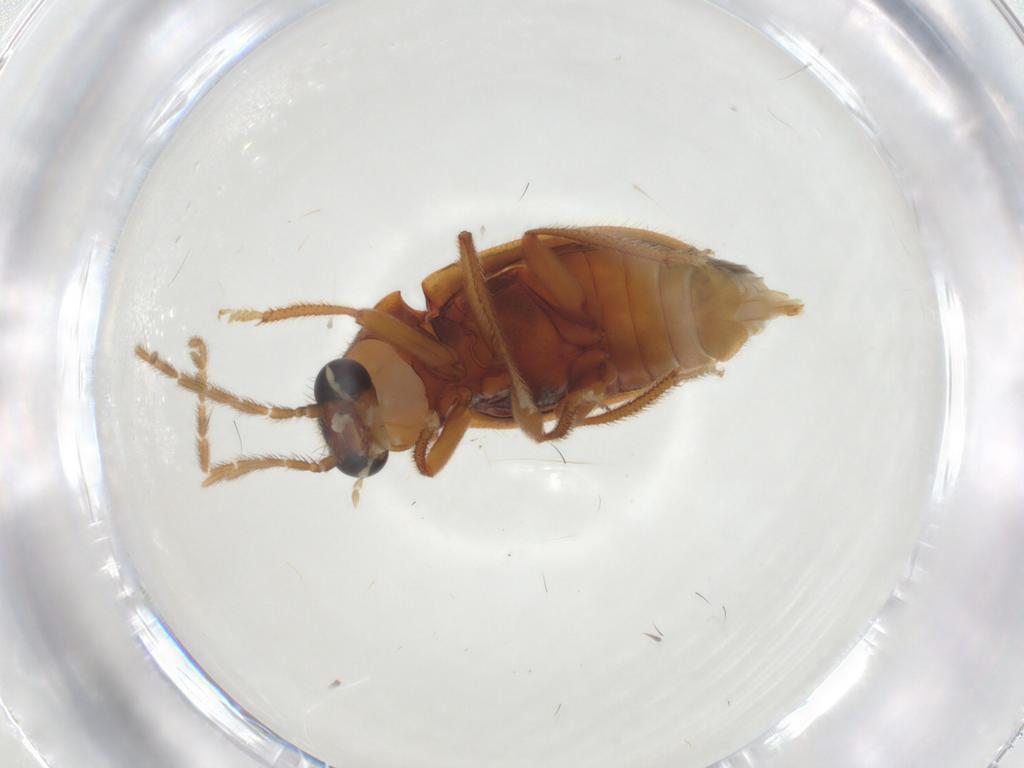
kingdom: Animalia
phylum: Arthropoda
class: Insecta
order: Coleoptera
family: Ptilodactylidae
